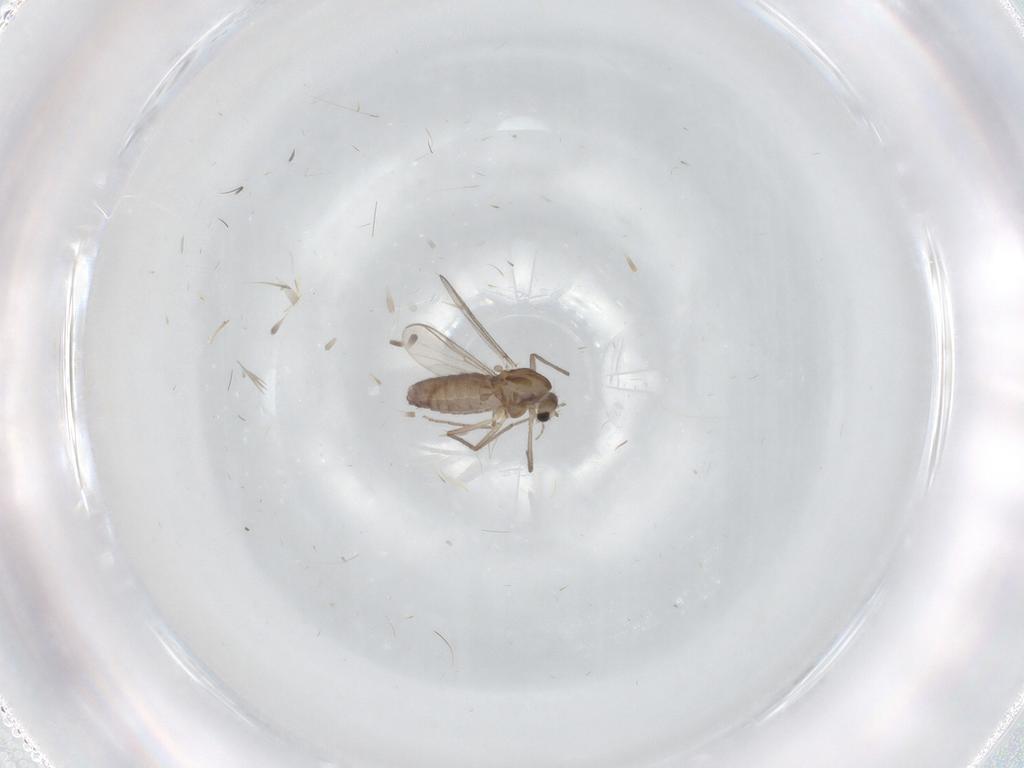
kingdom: Animalia
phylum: Arthropoda
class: Insecta
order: Diptera
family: Chironomidae
